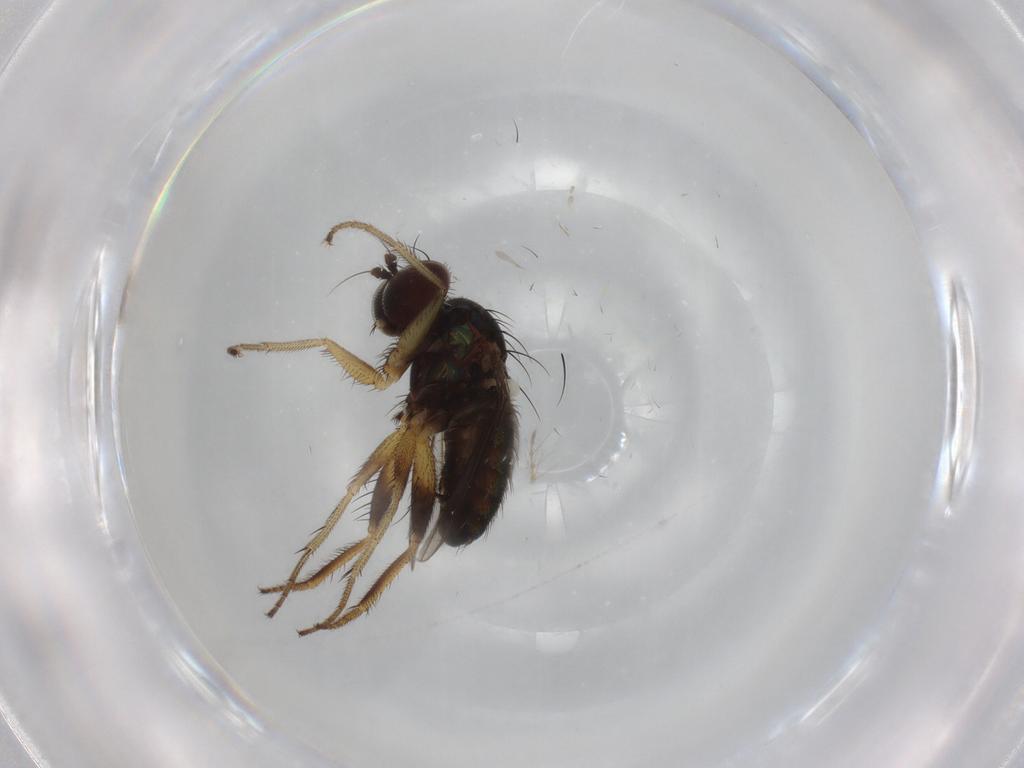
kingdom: Animalia
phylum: Arthropoda
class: Insecta
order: Diptera
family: Dolichopodidae
